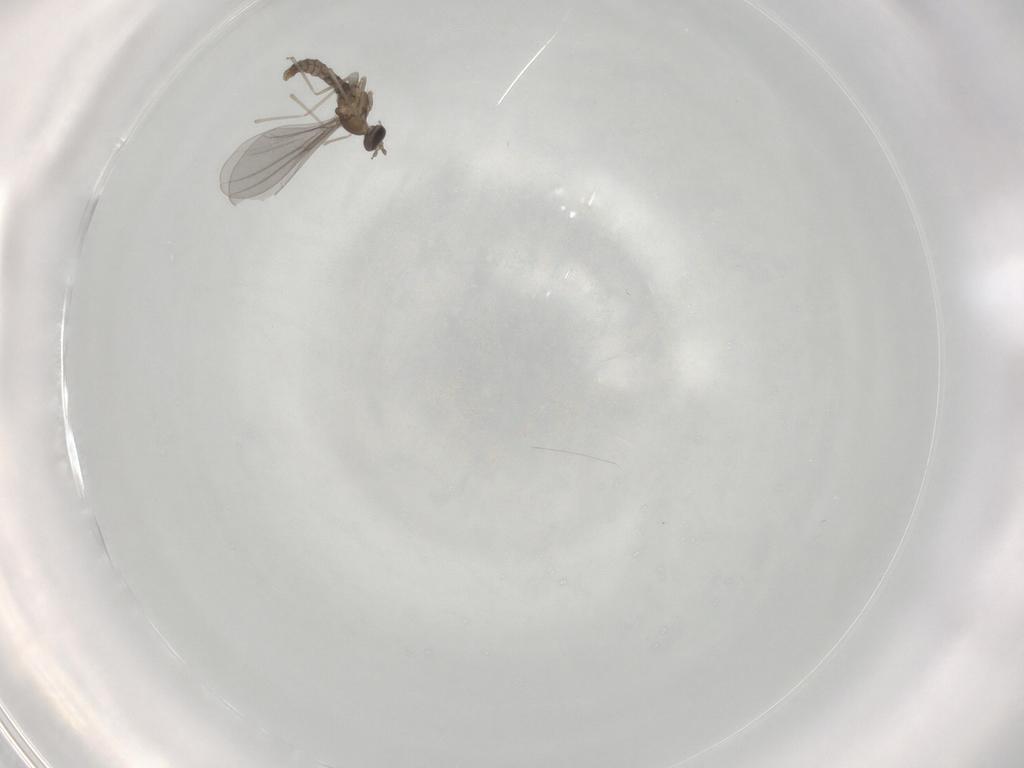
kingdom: Animalia
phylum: Arthropoda
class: Insecta
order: Diptera
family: Cecidomyiidae
